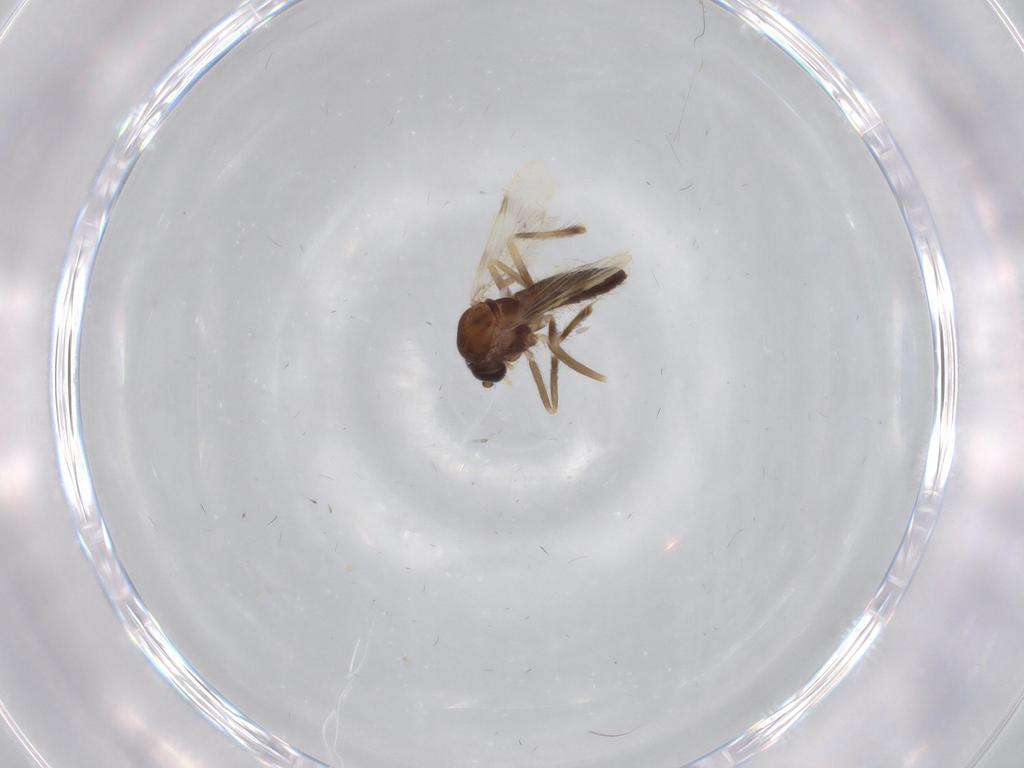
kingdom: Animalia
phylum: Arthropoda
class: Insecta
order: Diptera
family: Corethrellidae
